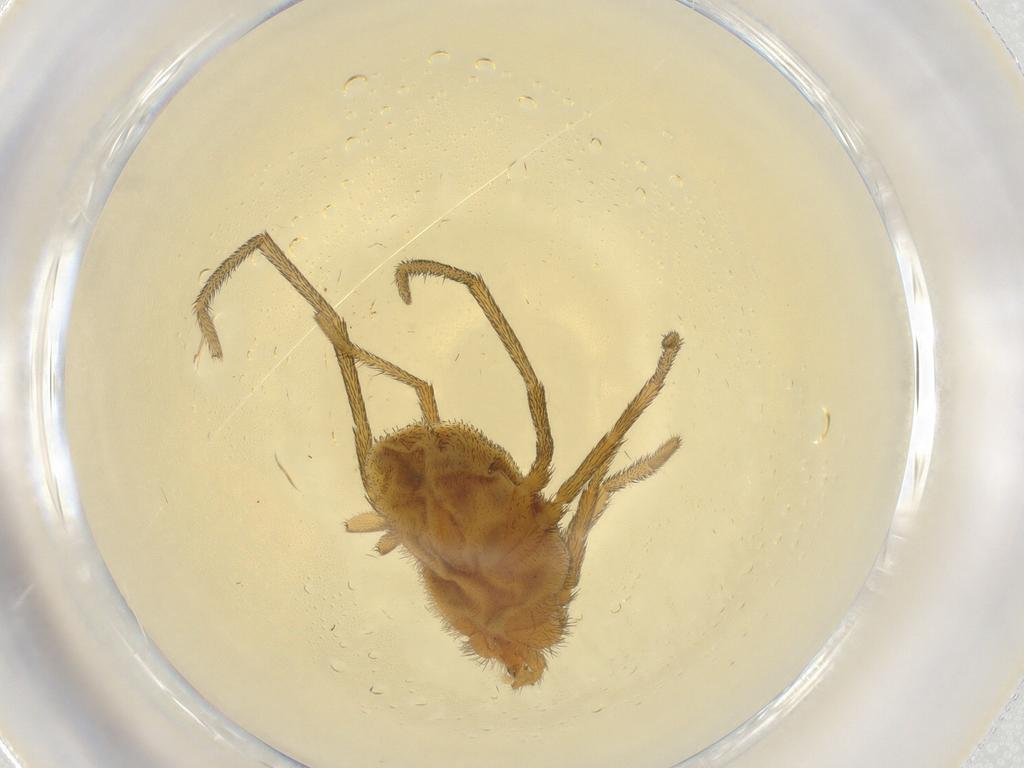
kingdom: Animalia
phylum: Arthropoda
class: Arachnida
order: Trombidiformes
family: Erythraeidae
